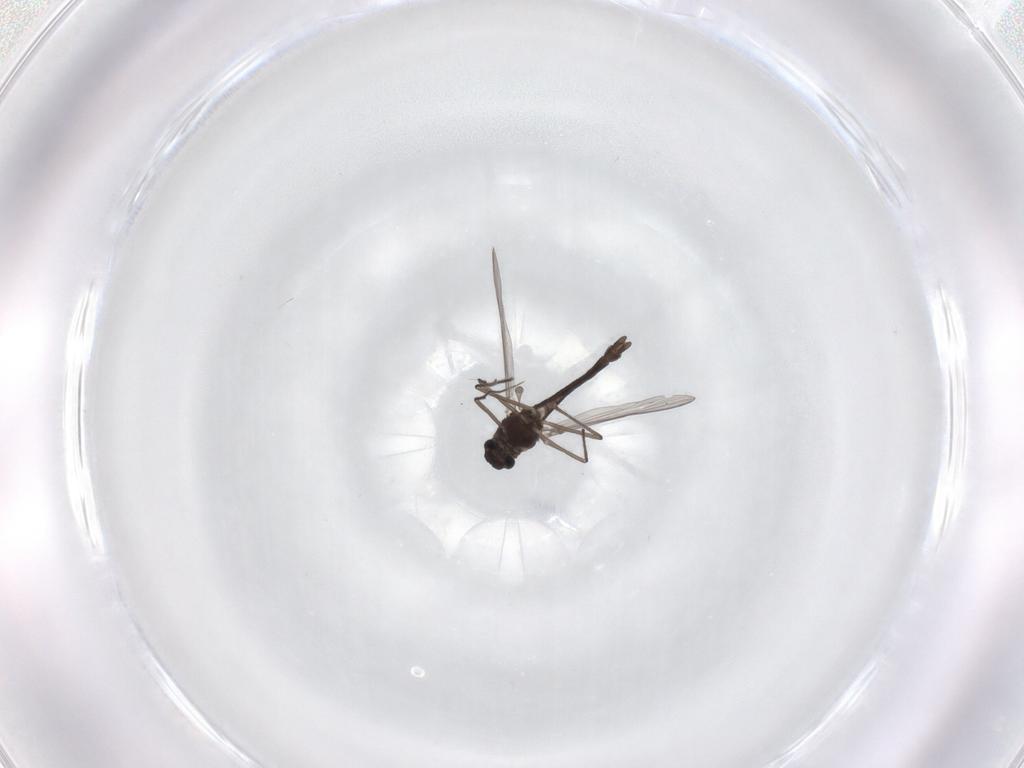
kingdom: Animalia
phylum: Arthropoda
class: Insecta
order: Diptera
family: Chironomidae
